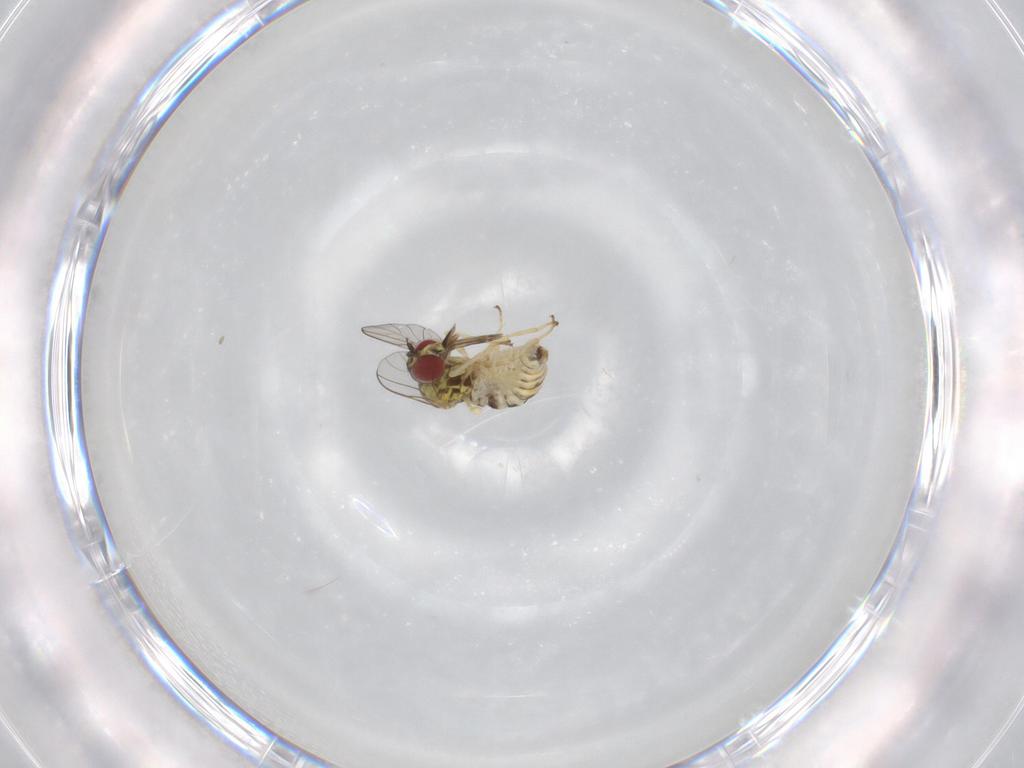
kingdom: Animalia
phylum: Arthropoda
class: Insecta
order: Diptera
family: Bombyliidae
